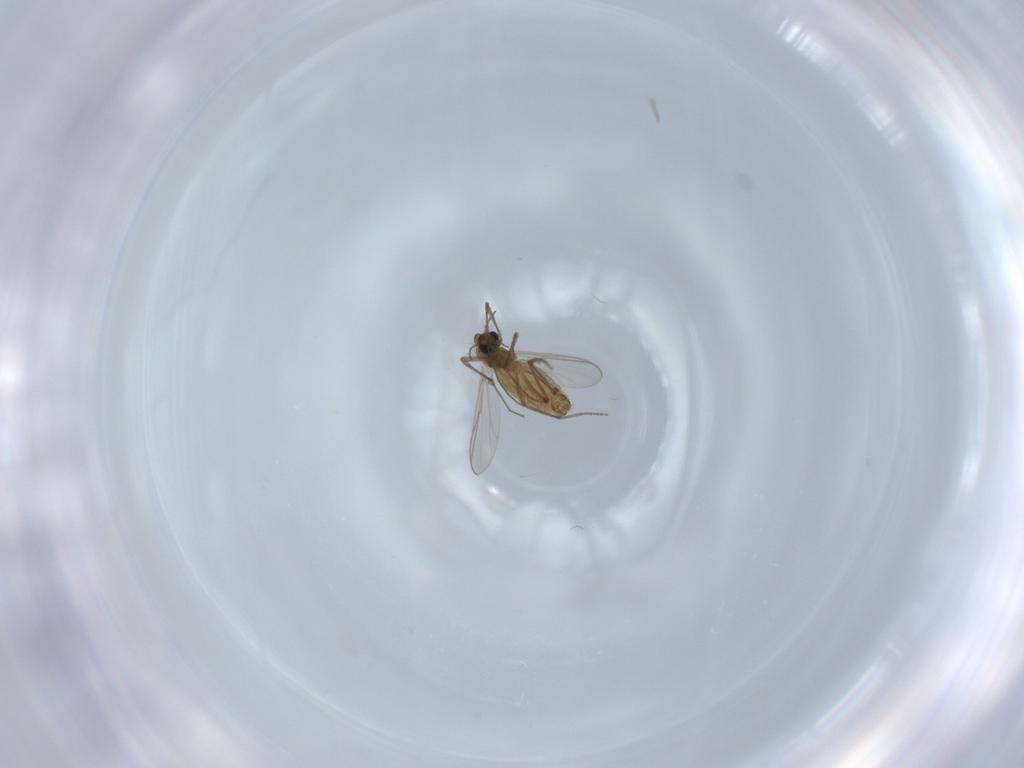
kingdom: Animalia
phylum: Arthropoda
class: Insecta
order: Diptera
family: Chironomidae
